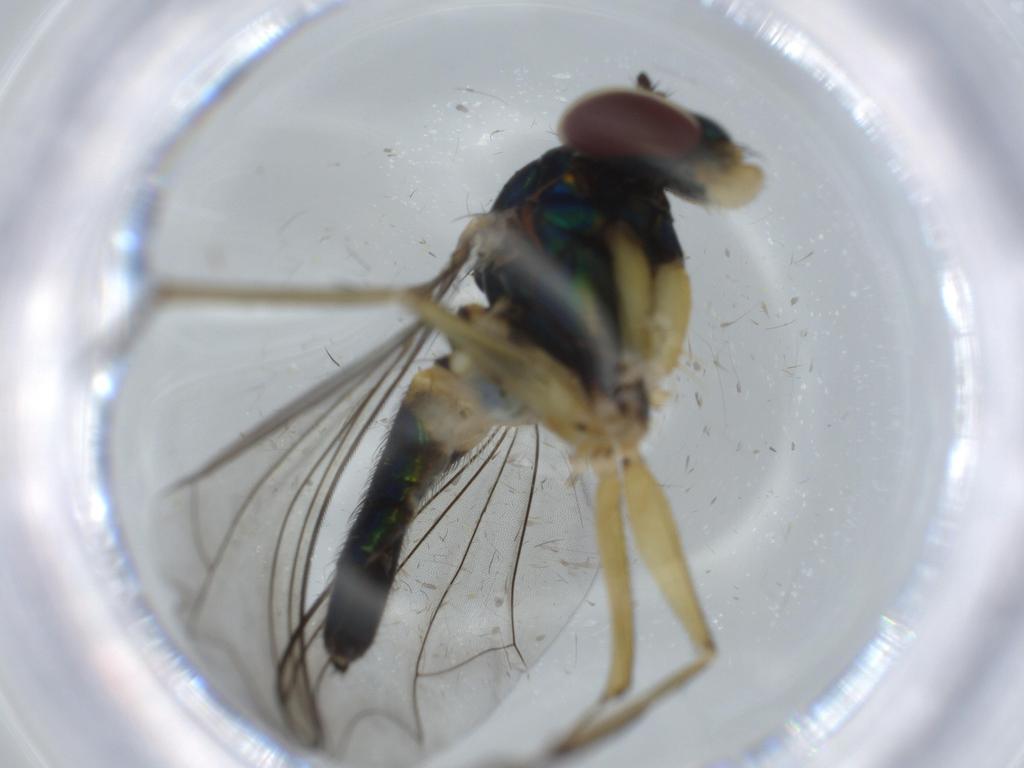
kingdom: Animalia
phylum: Arthropoda
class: Insecta
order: Diptera
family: Dolichopodidae
